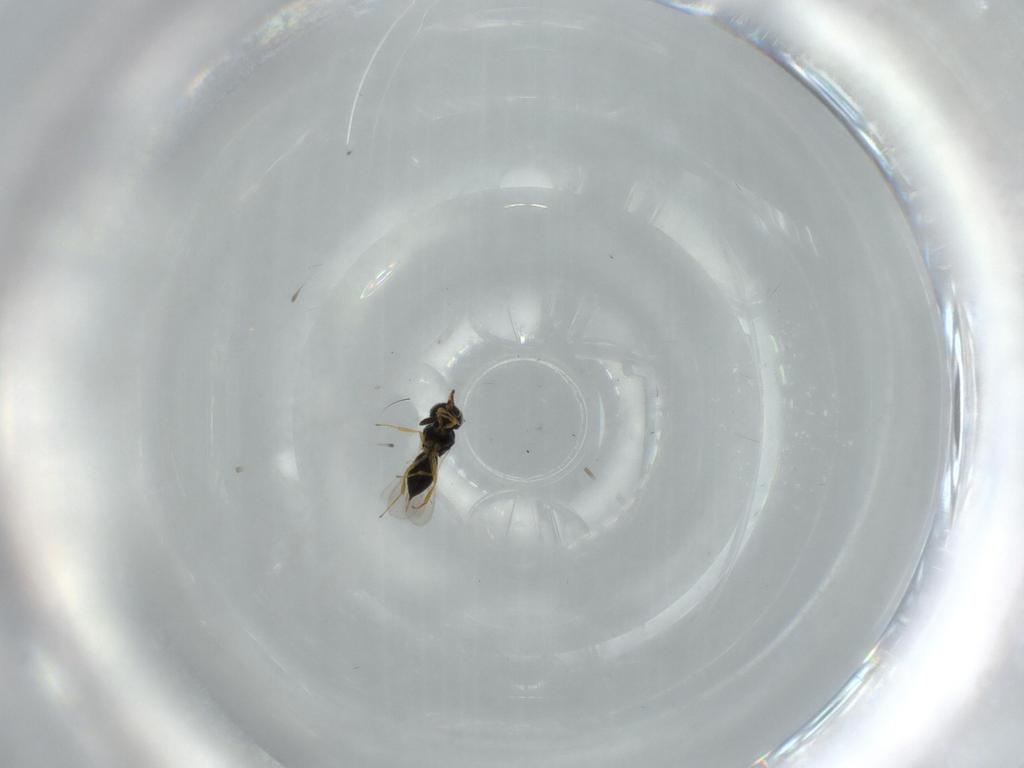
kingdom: Animalia
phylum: Arthropoda
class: Insecta
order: Hymenoptera
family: Scelionidae
